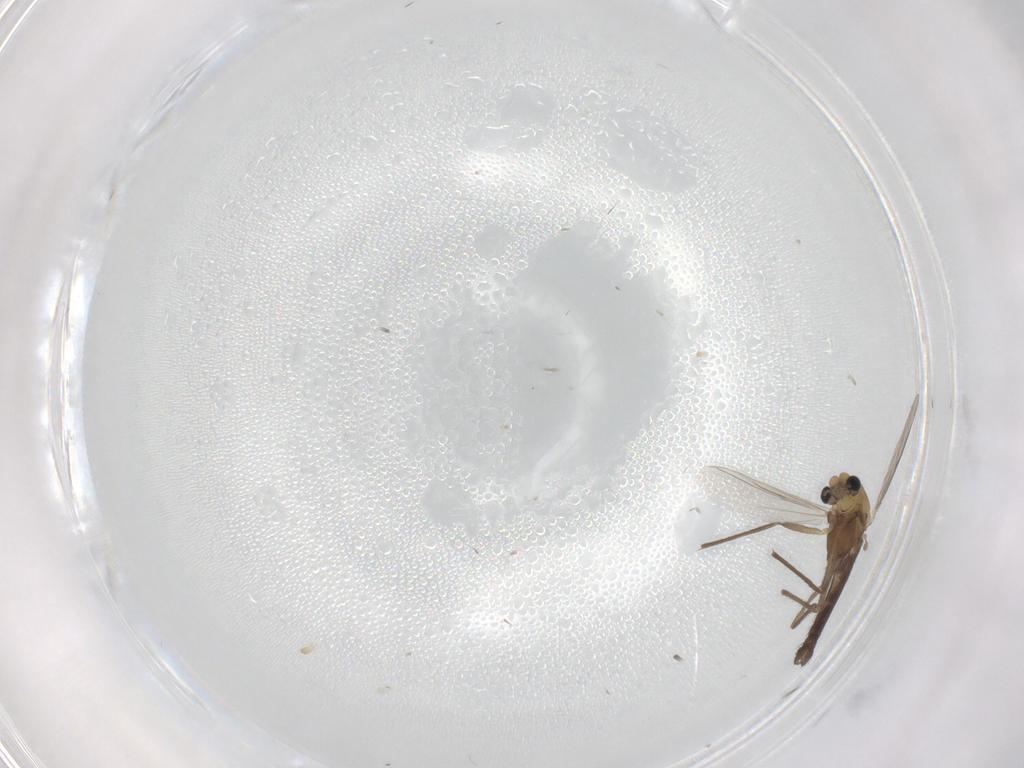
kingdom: Animalia
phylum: Arthropoda
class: Insecta
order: Diptera
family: Chironomidae
